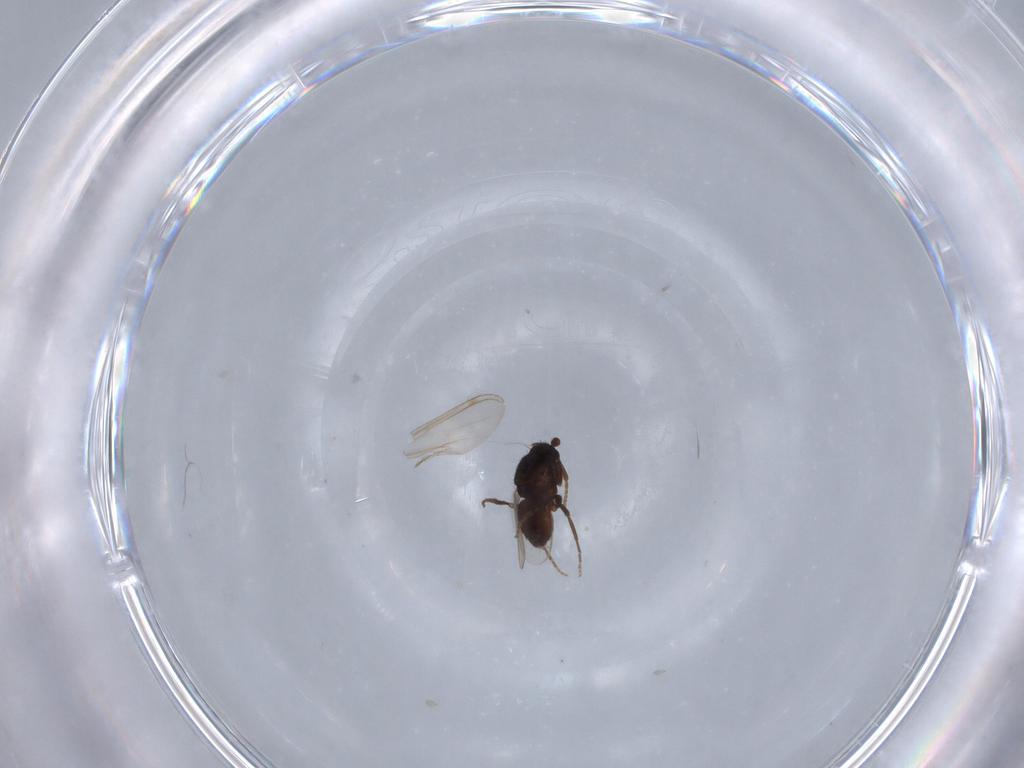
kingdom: Animalia
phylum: Arthropoda
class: Insecta
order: Diptera
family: Chironomidae
